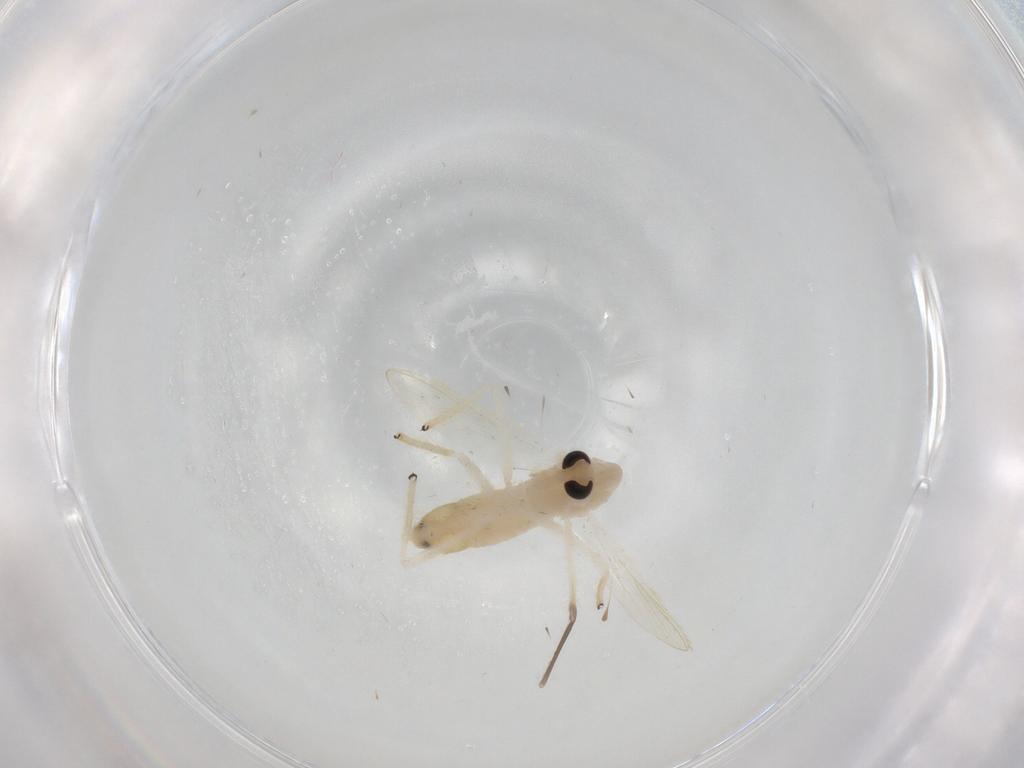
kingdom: Animalia
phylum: Arthropoda
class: Insecta
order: Diptera
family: Chironomidae
